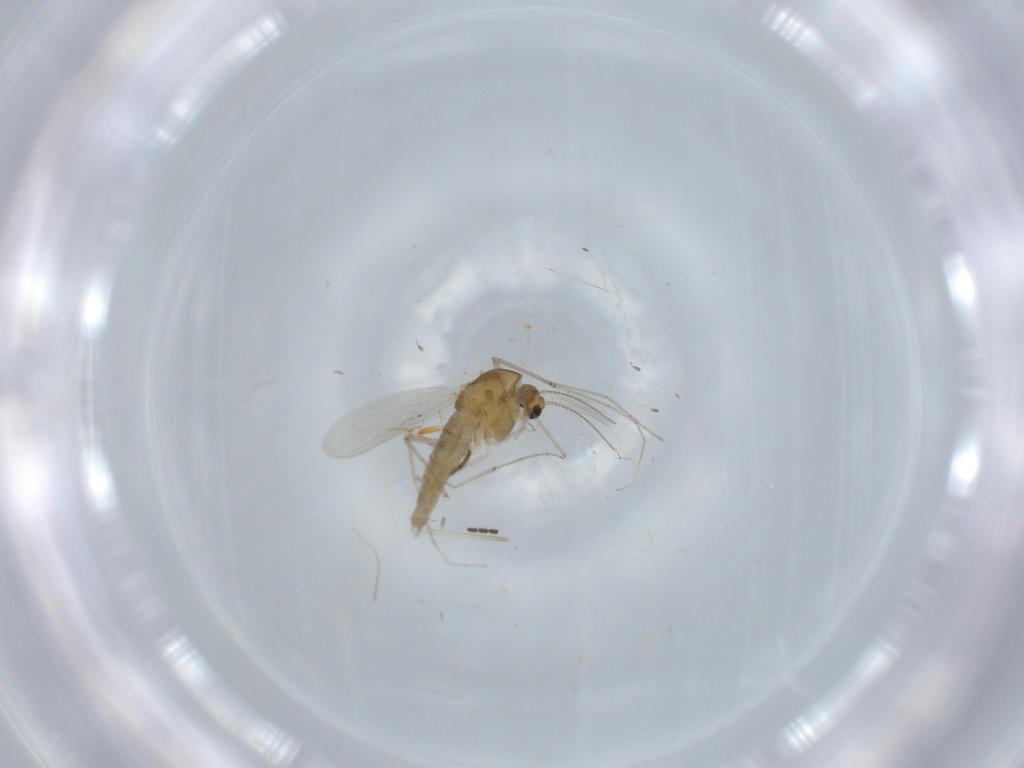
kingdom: Animalia
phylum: Arthropoda
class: Insecta
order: Diptera
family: Chironomidae
